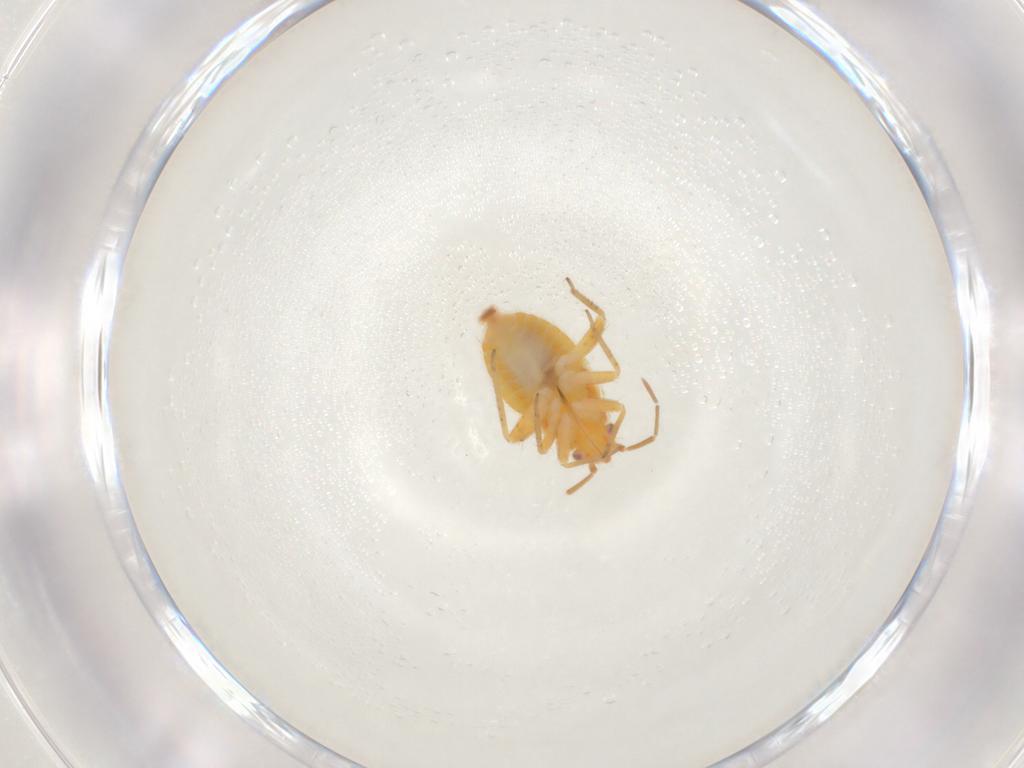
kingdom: Animalia
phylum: Arthropoda
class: Insecta
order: Hemiptera
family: Miridae
